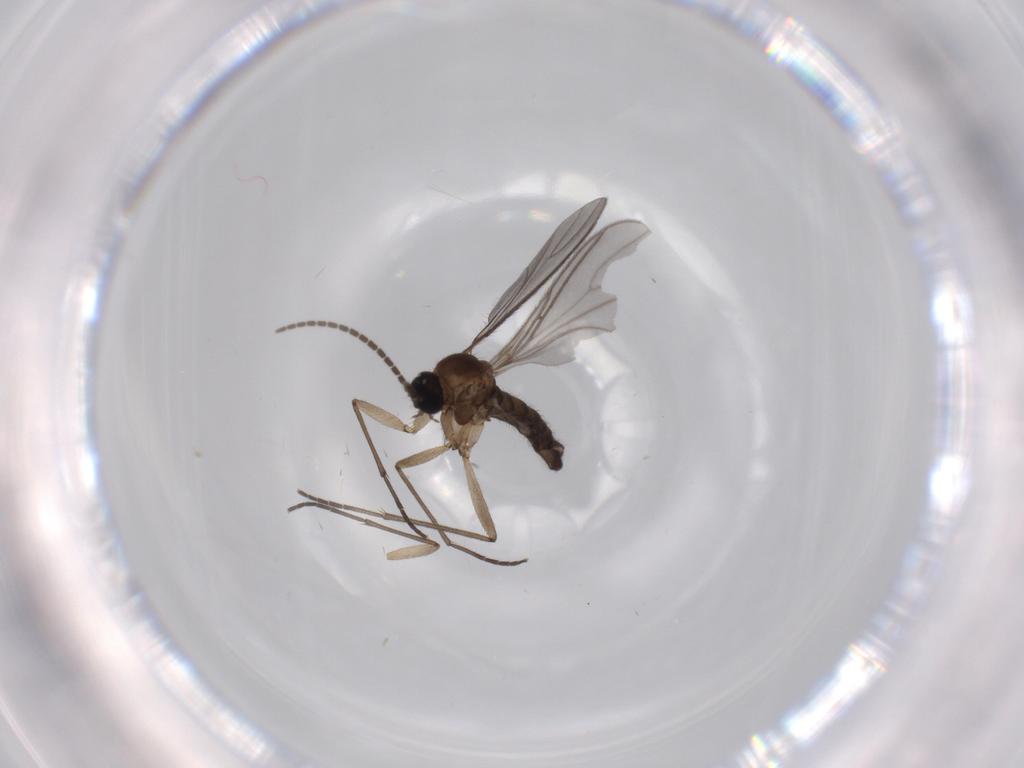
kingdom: Animalia
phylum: Arthropoda
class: Insecta
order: Diptera
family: Sciaridae
